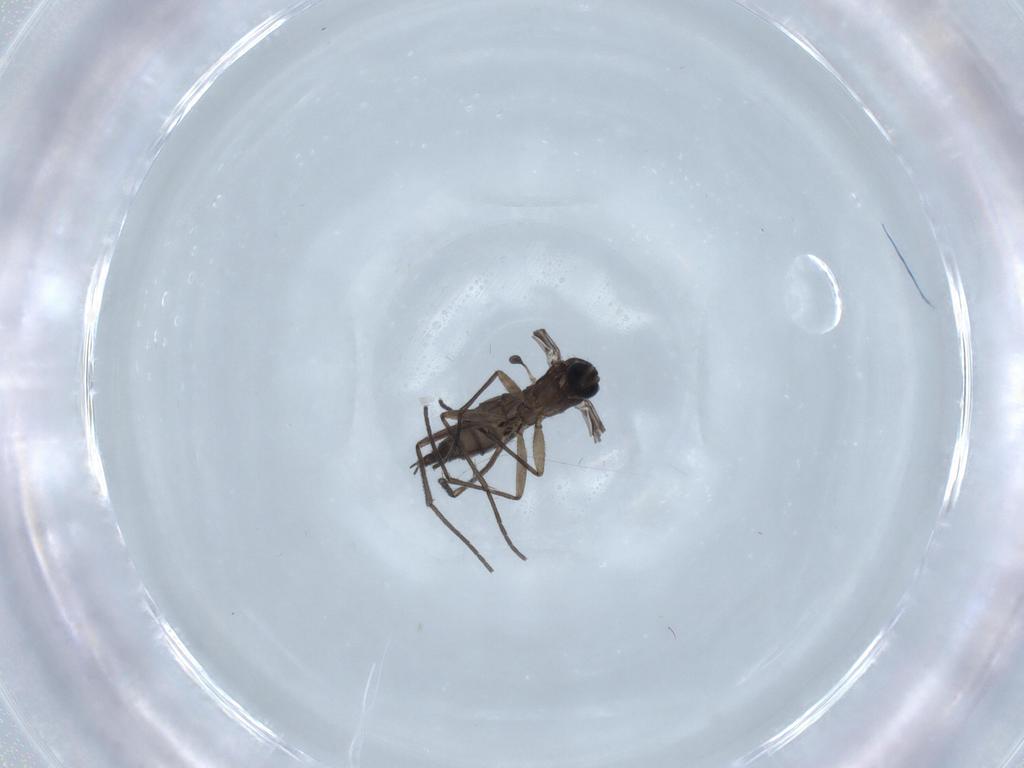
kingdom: Animalia
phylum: Arthropoda
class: Insecta
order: Diptera
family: Sciaridae
